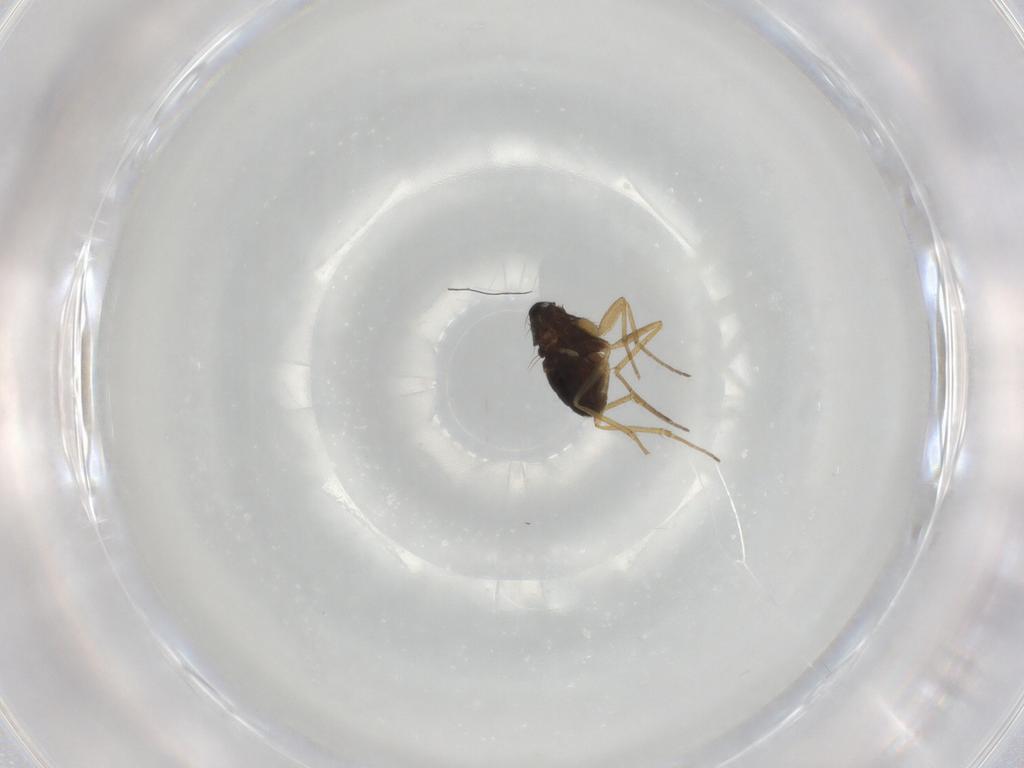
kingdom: Animalia
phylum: Arthropoda
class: Insecta
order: Diptera
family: Dolichopodidae
